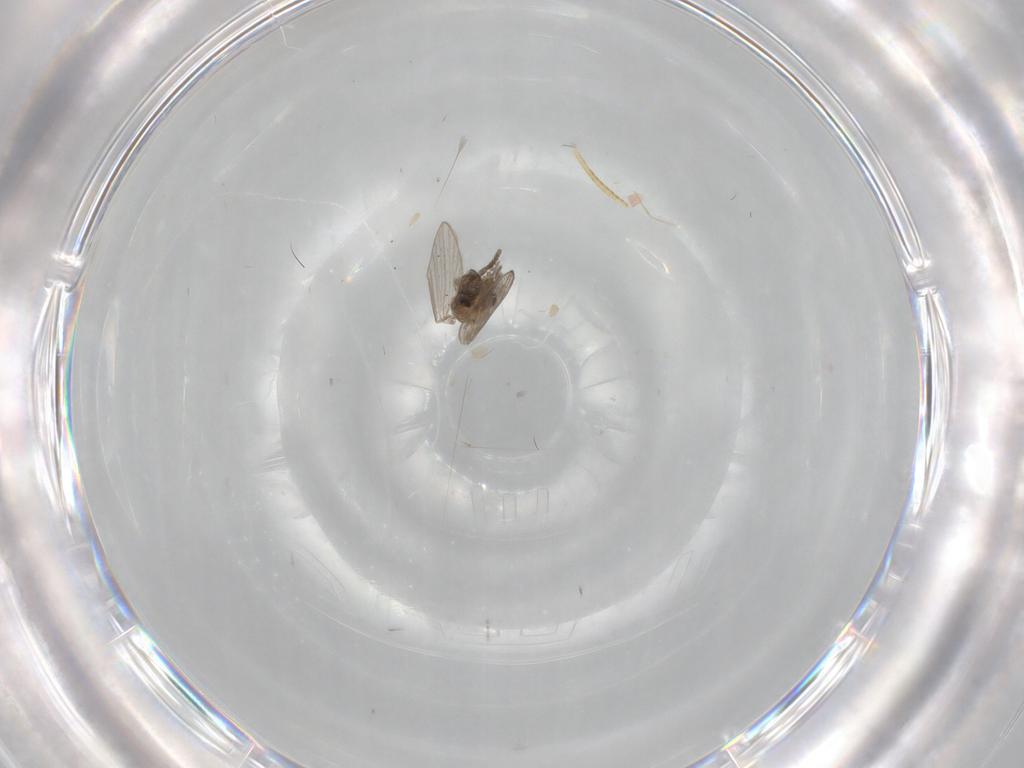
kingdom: Animalia
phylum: Arthropoda
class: Insecta
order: Diptera
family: Psychodidae
